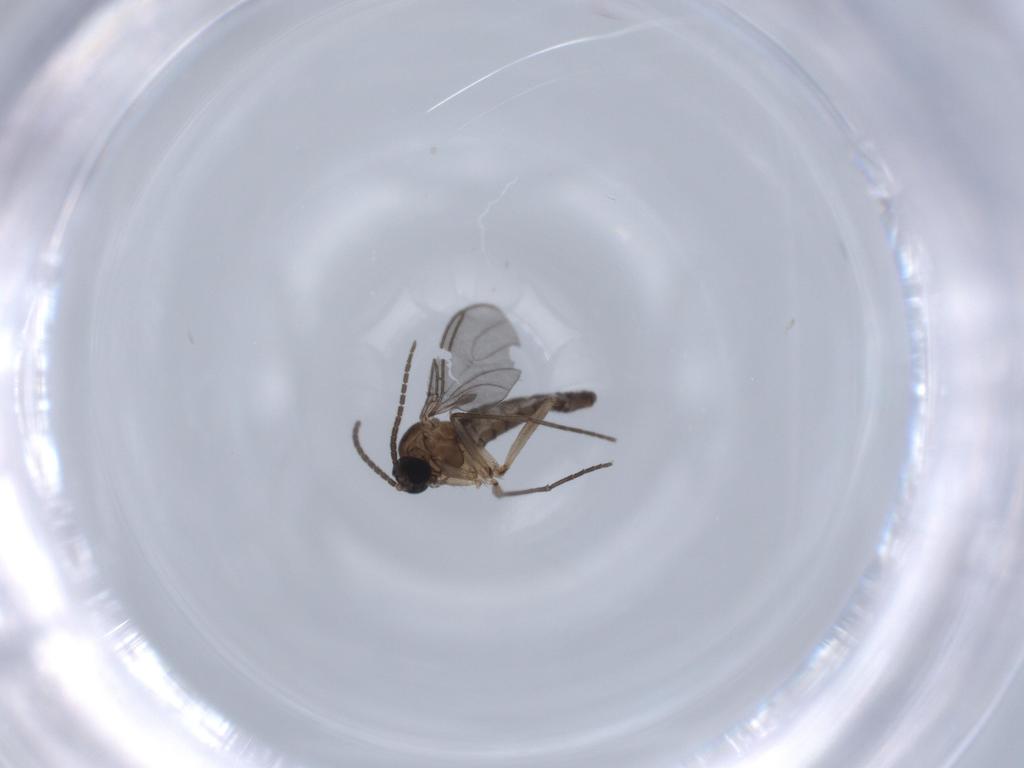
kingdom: Animalia
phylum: Arthropoda
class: Insecta
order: Diptera
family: Sciaridae
